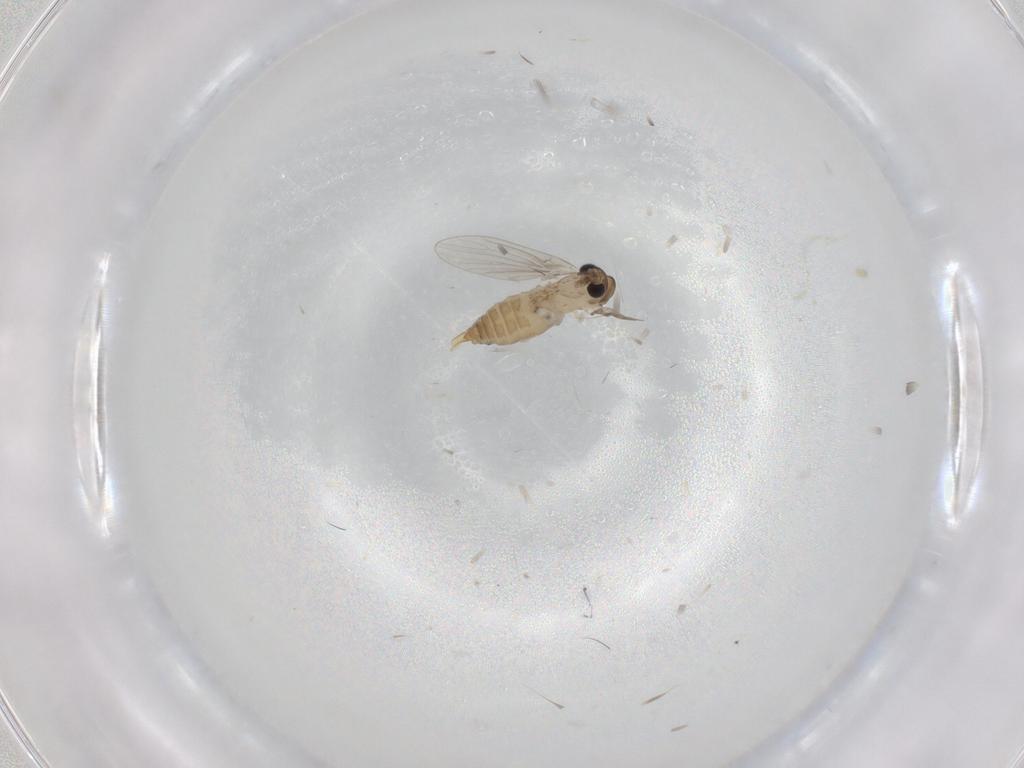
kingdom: Animalia
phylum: Arthropoda
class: Insecta
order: Diptera
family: Psychodidae
